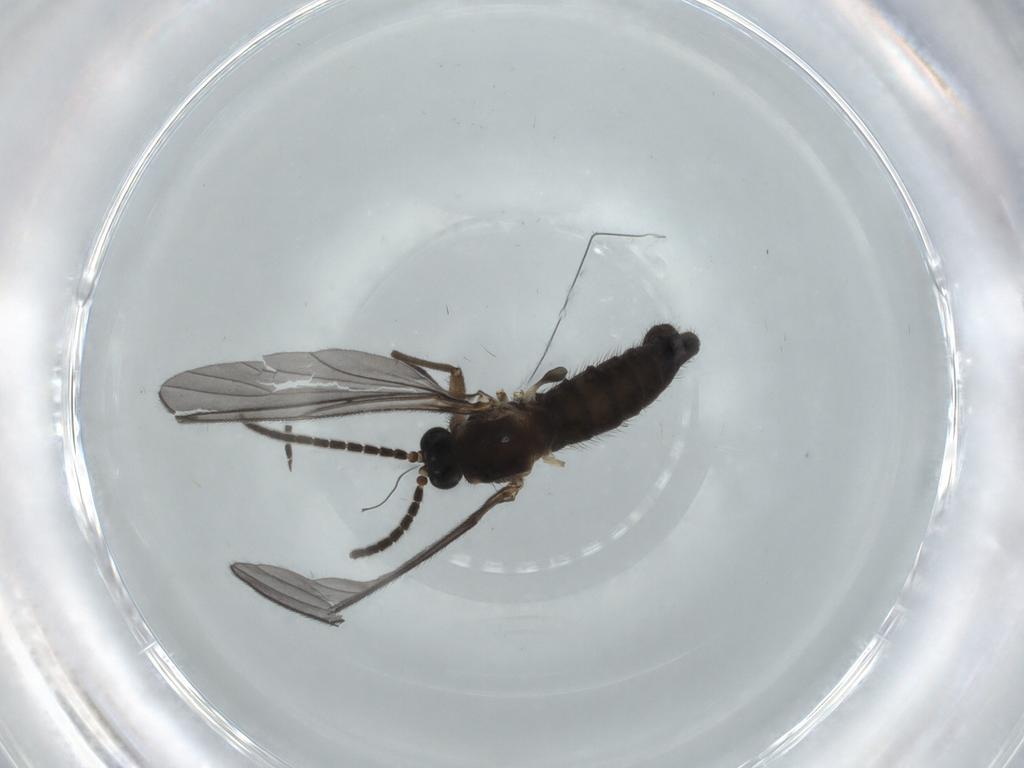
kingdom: Animalia
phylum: Arthropoda
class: Insecta
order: Diptera
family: Sciaridae
